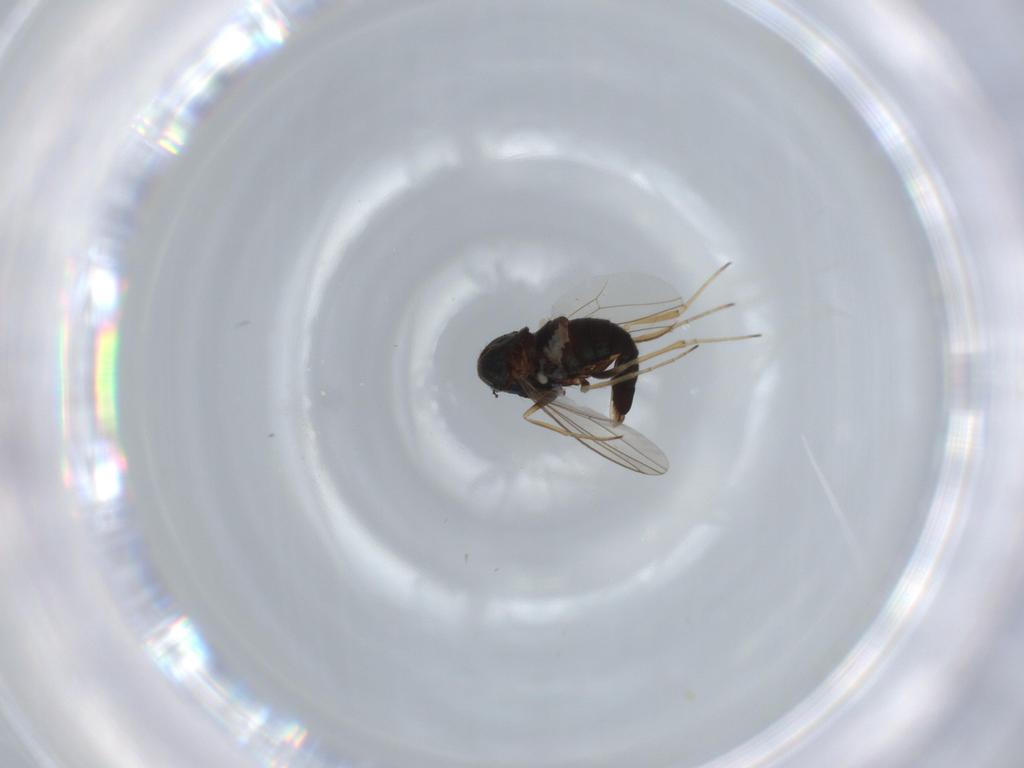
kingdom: Animalia
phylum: Arthropoda
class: Insecta
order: Diptera
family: Dolichopodidae
